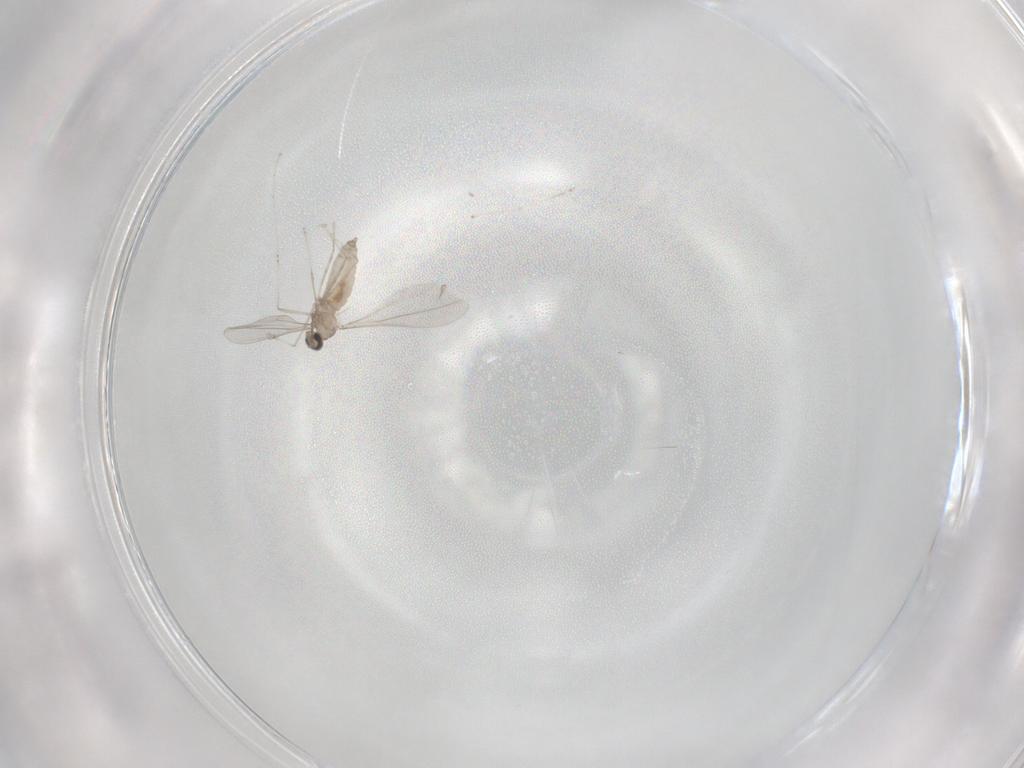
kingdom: Animalia
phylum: Arthropoda
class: Insecta
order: Diptera
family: Cecidomyiidae
